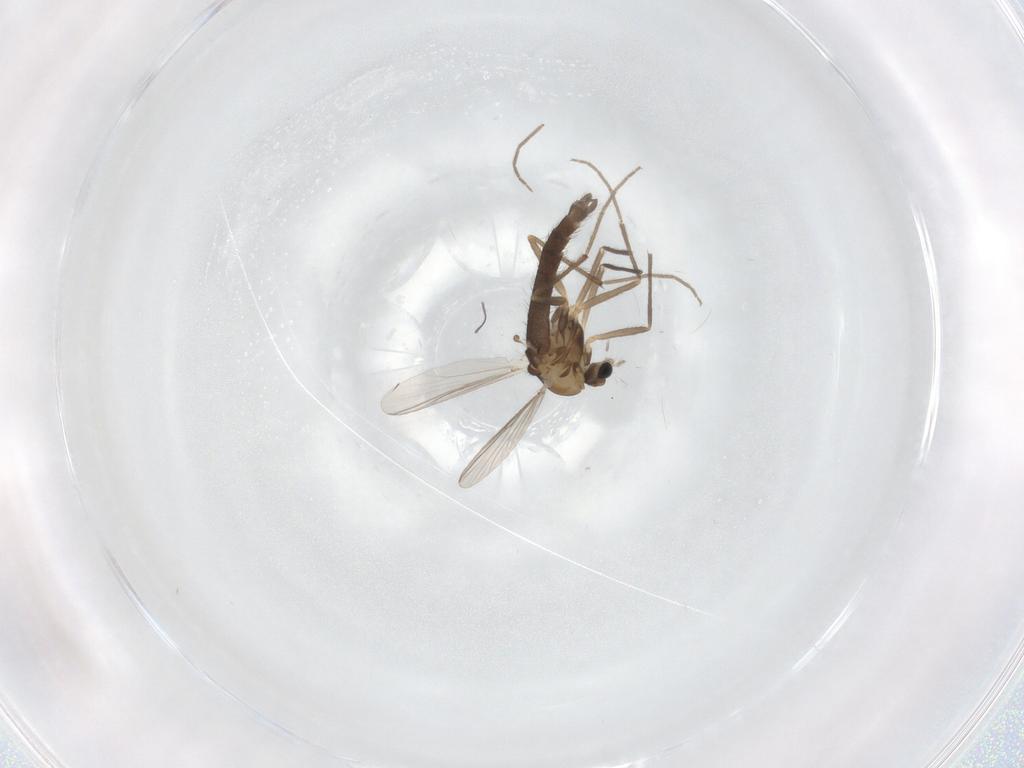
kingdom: Animalia
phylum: Arthropoda
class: Insecta
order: Diptera
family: Chironomidae
